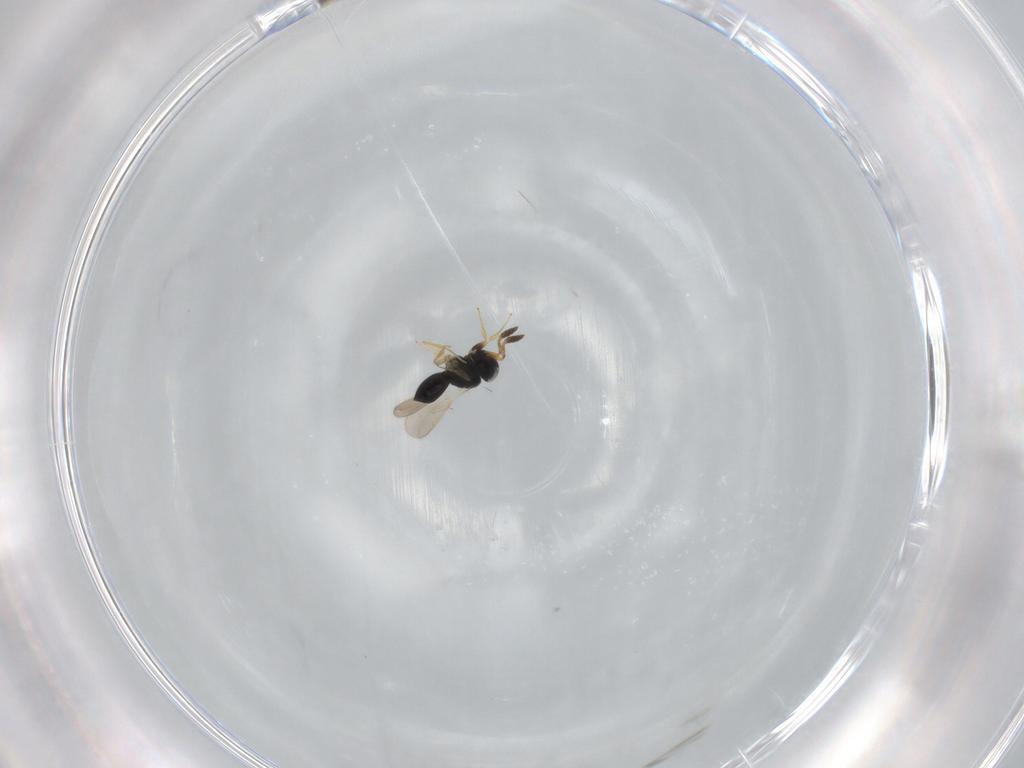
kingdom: Animalia
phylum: Arthropoda
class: Insecta
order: Hymenoptera
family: Scelionidae
